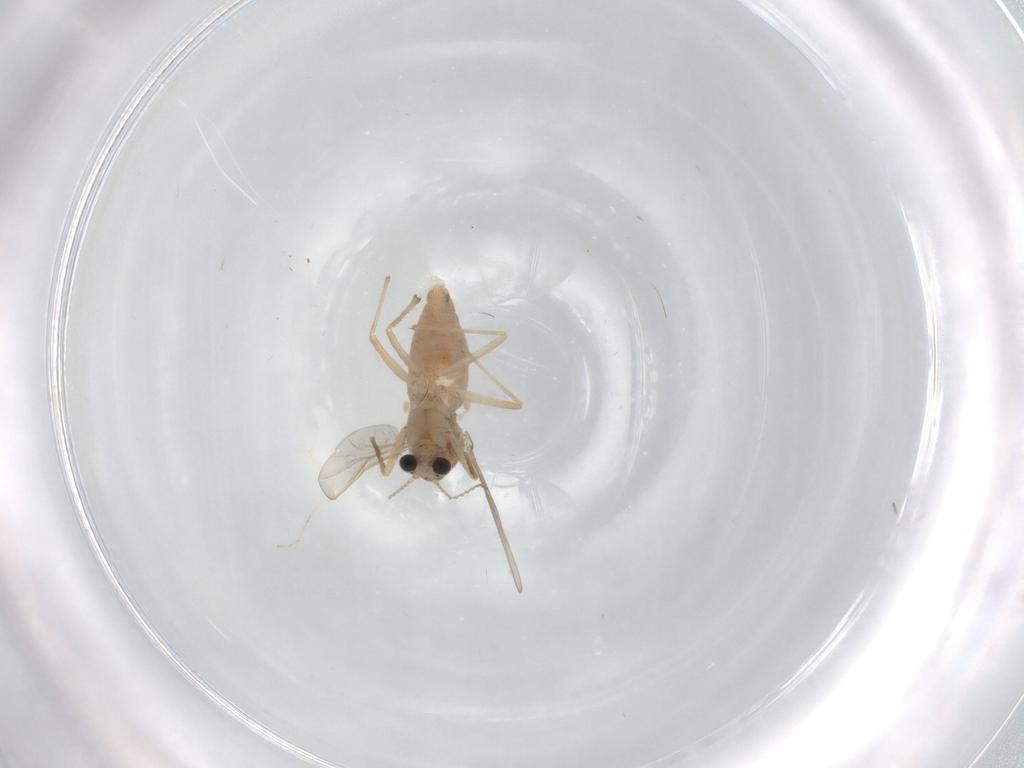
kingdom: Animalia
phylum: Arthropoda
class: Insecta
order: Diptera
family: Chironomidae
